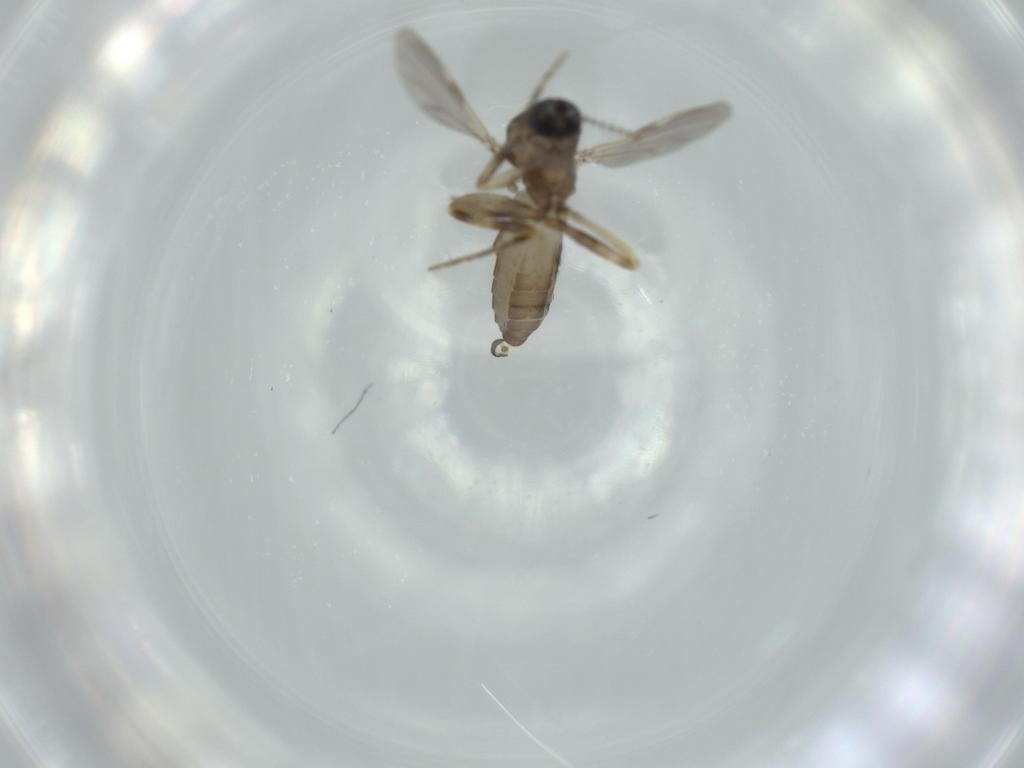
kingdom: Animalia
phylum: Arthropoda
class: Insecta
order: Diptera
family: Ceratopogonidae
